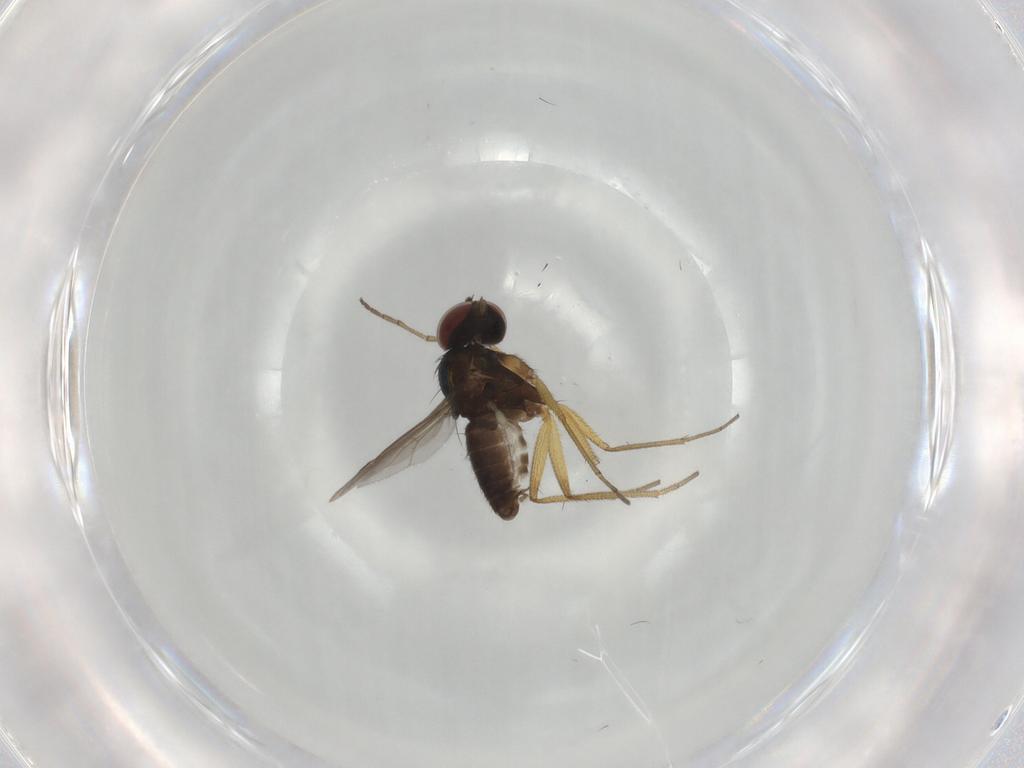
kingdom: Animalia
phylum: Arthropoda
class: Insecta
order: Diptera
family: Dolichopodidae
